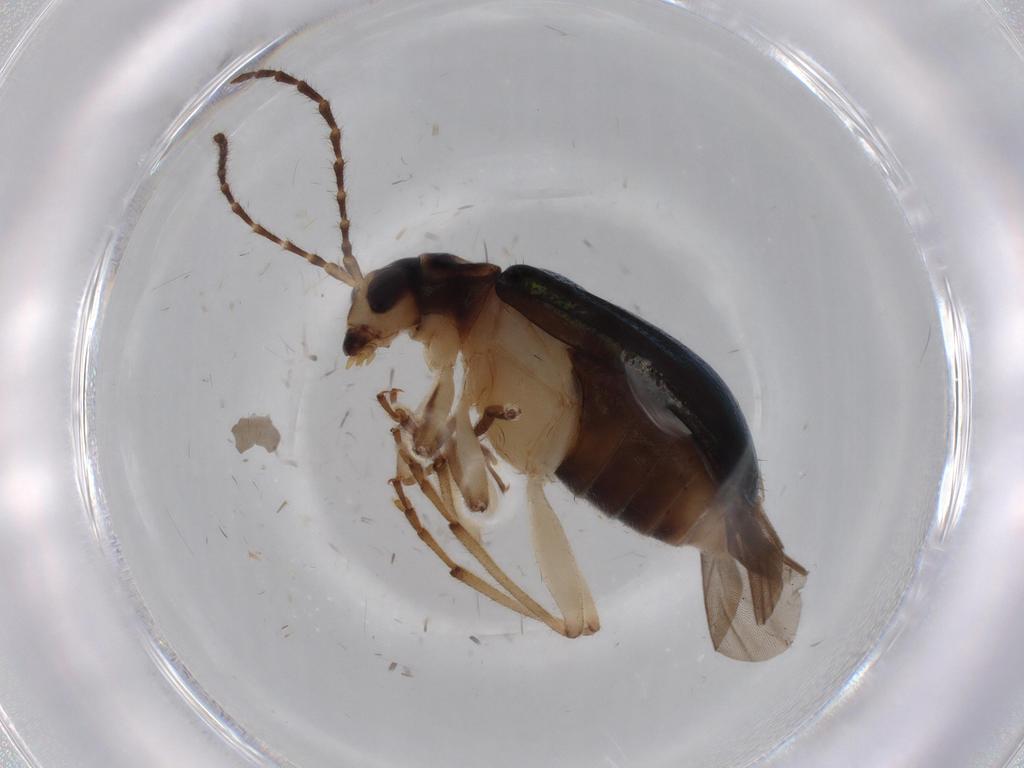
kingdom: Animalia
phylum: Arthropoda
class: Insecta
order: Coleoptera
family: Chrysomelidae
